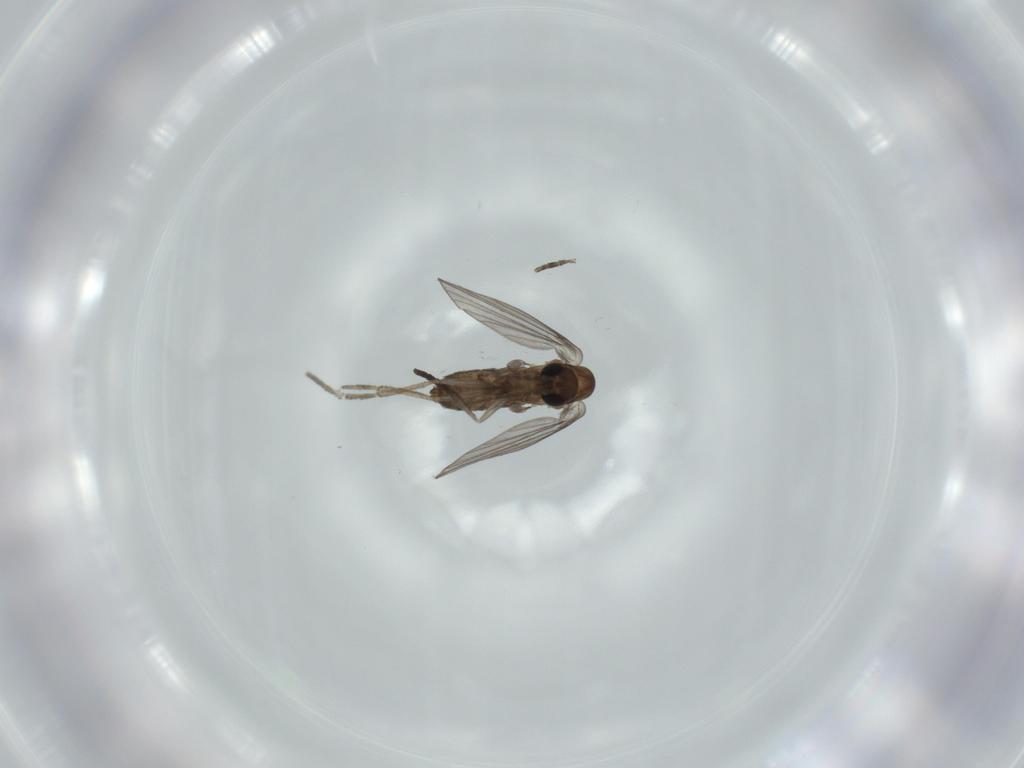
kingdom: Animalia
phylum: Arthropoda
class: Insecta
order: Diptera
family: Psychodidae
